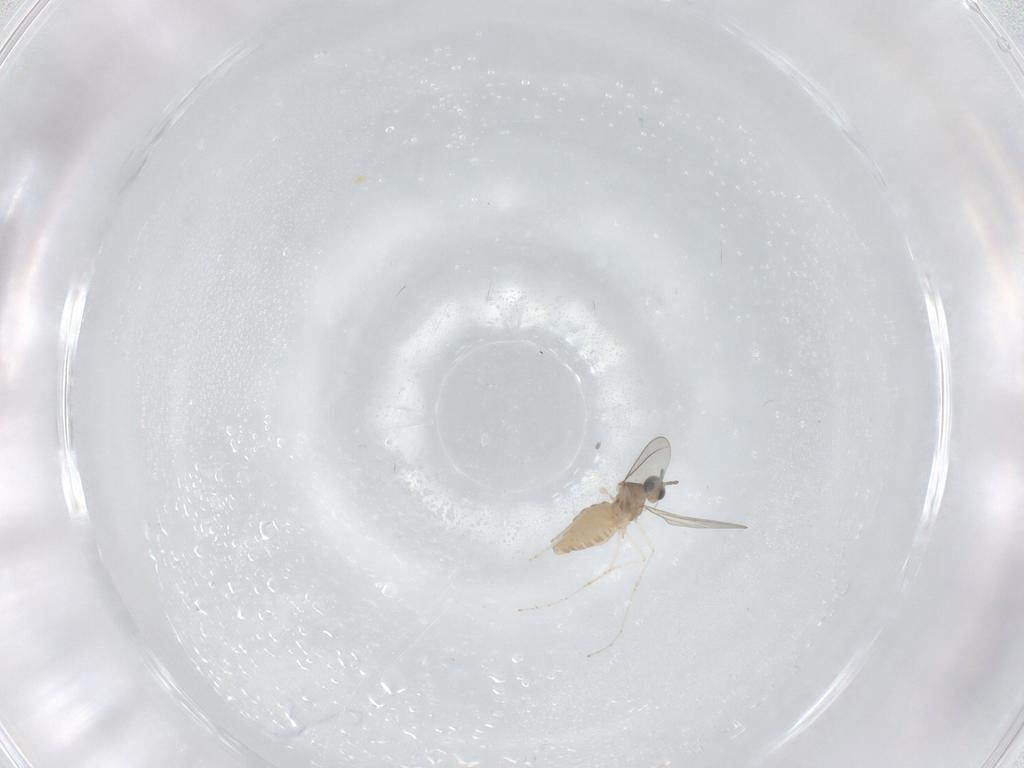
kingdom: Animalia
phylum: Arthropoda
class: Insecta
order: Diptera
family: Cecidomyiidae
